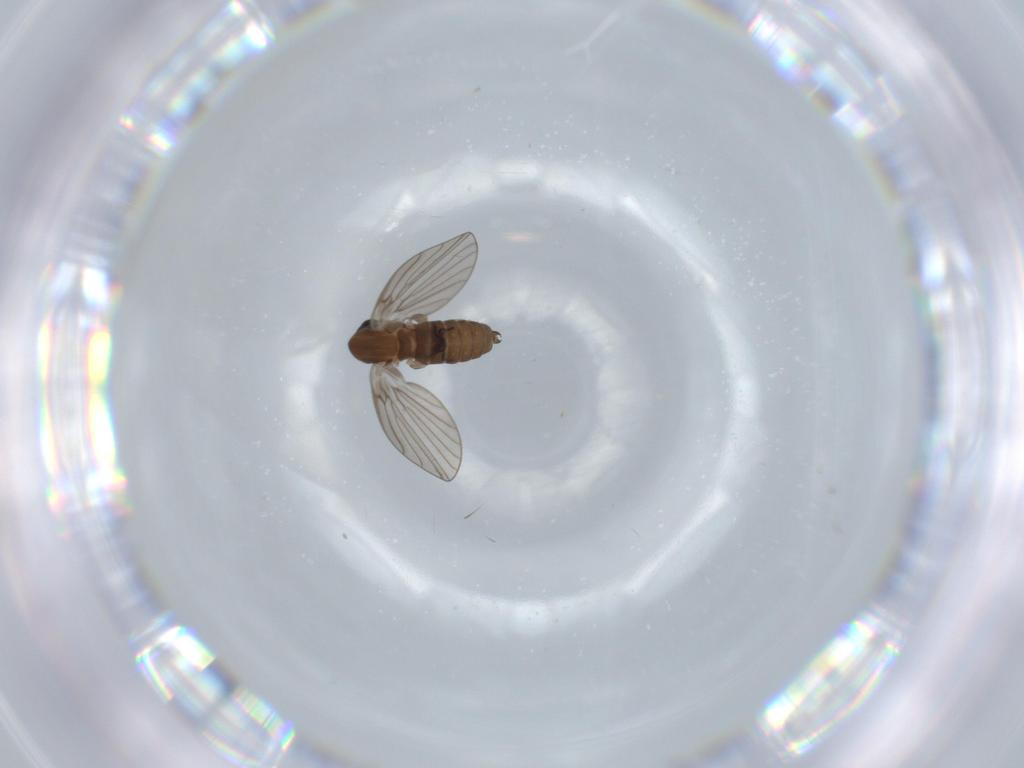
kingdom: Animalia
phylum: Arthropoda
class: Insecta
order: Diptera
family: Psychodidae
